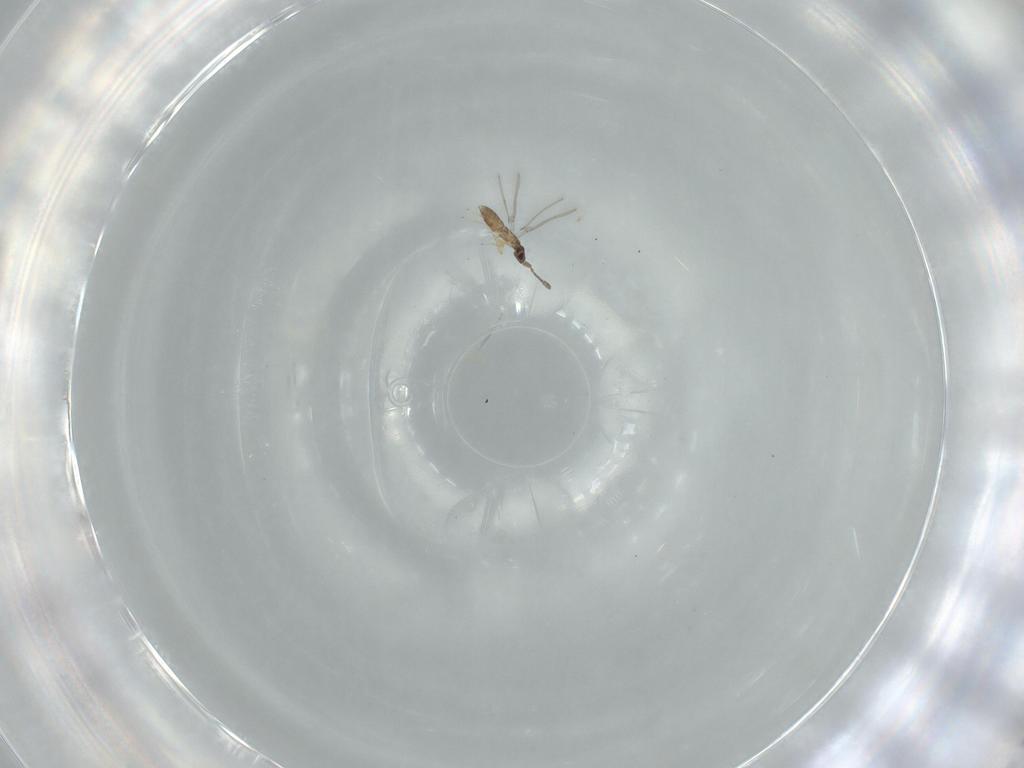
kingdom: Animalia
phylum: Arthropoda
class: Insecta
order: Hymenoptera
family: Mymaridae
